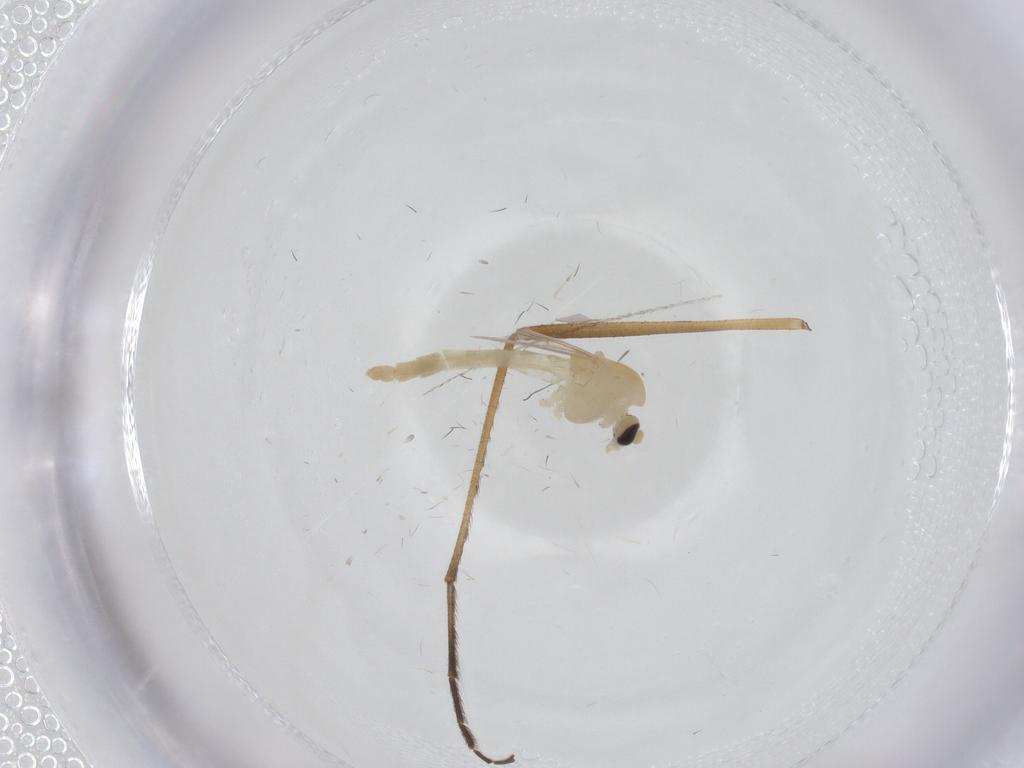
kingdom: Animalia
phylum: Arthropoda
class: Insecta
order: Diptera
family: Chironomidae
